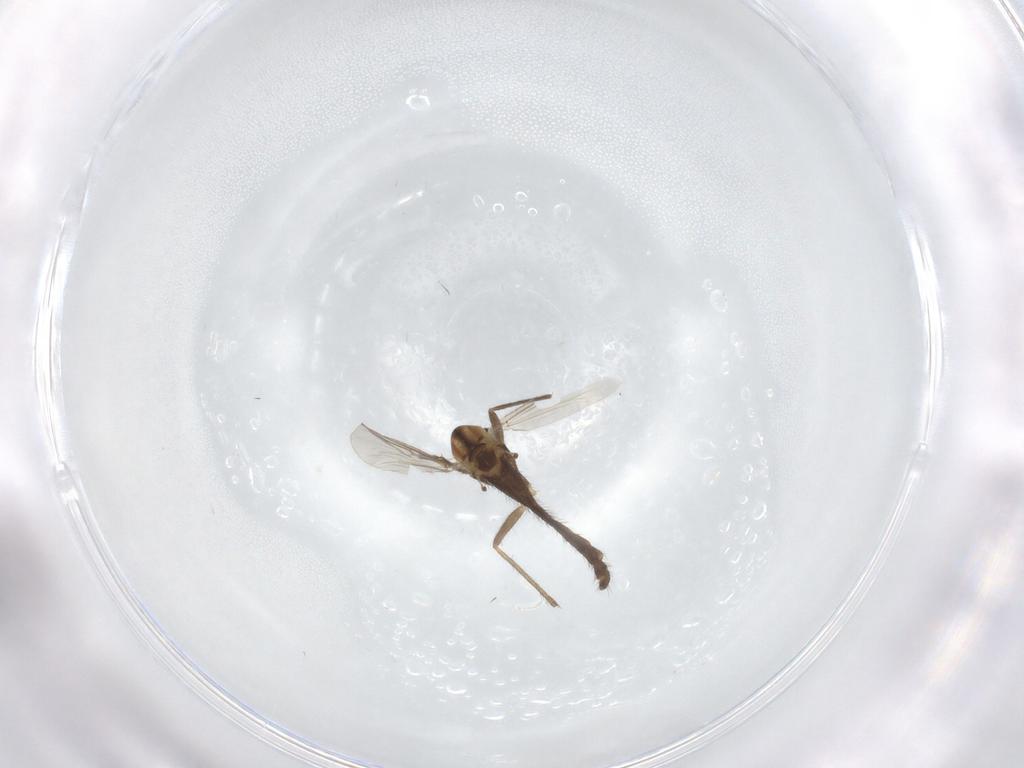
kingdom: Animalia
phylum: Arthropoda
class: Insecta
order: Diptera
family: Chironomidae
